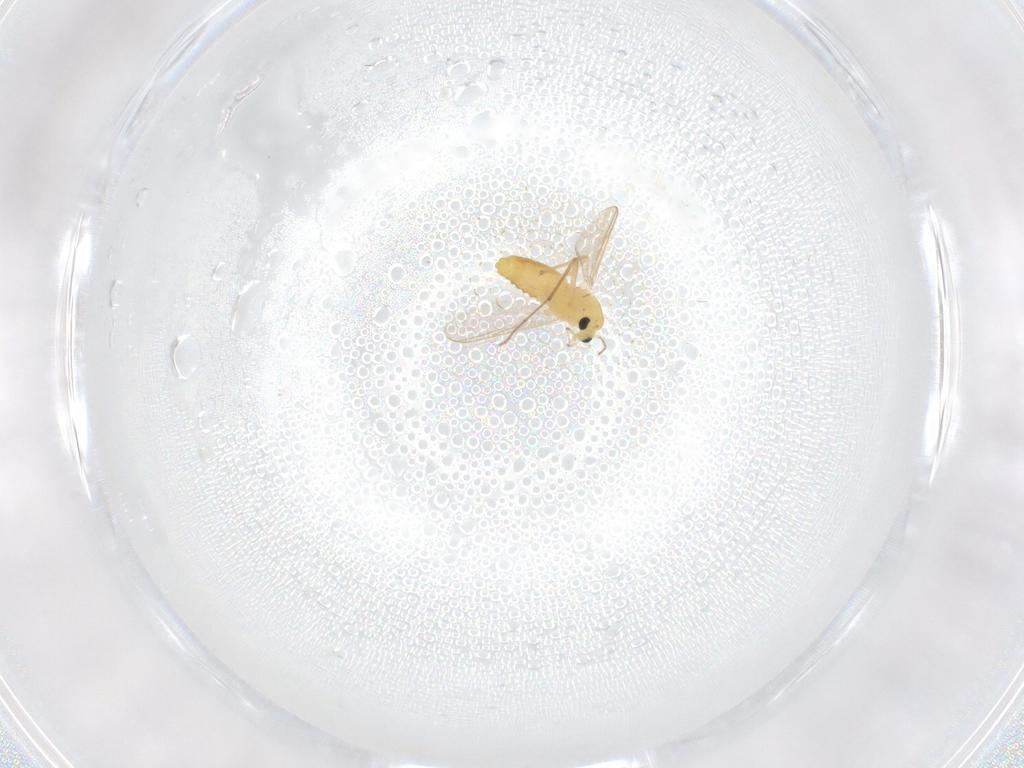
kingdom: Animalia
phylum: Arthropoda
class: Insecta
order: Diptera
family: Chironomidae
